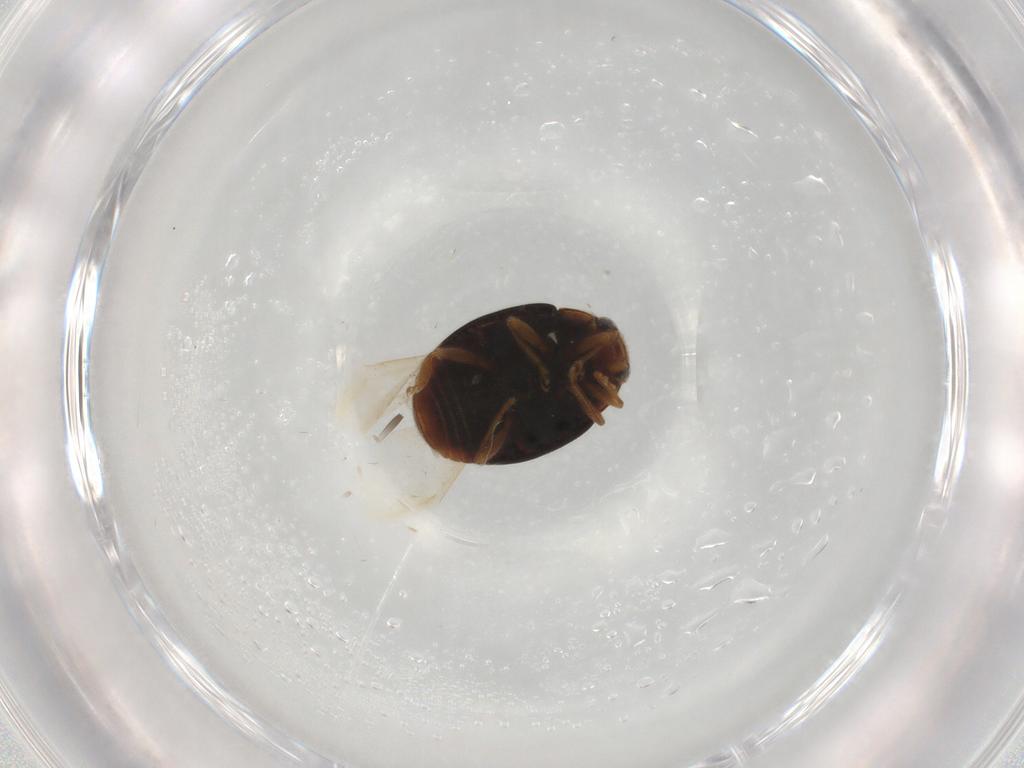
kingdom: Animalia
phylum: Arthropoda
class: Insecta
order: Coleoptera
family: Coccinellidae
